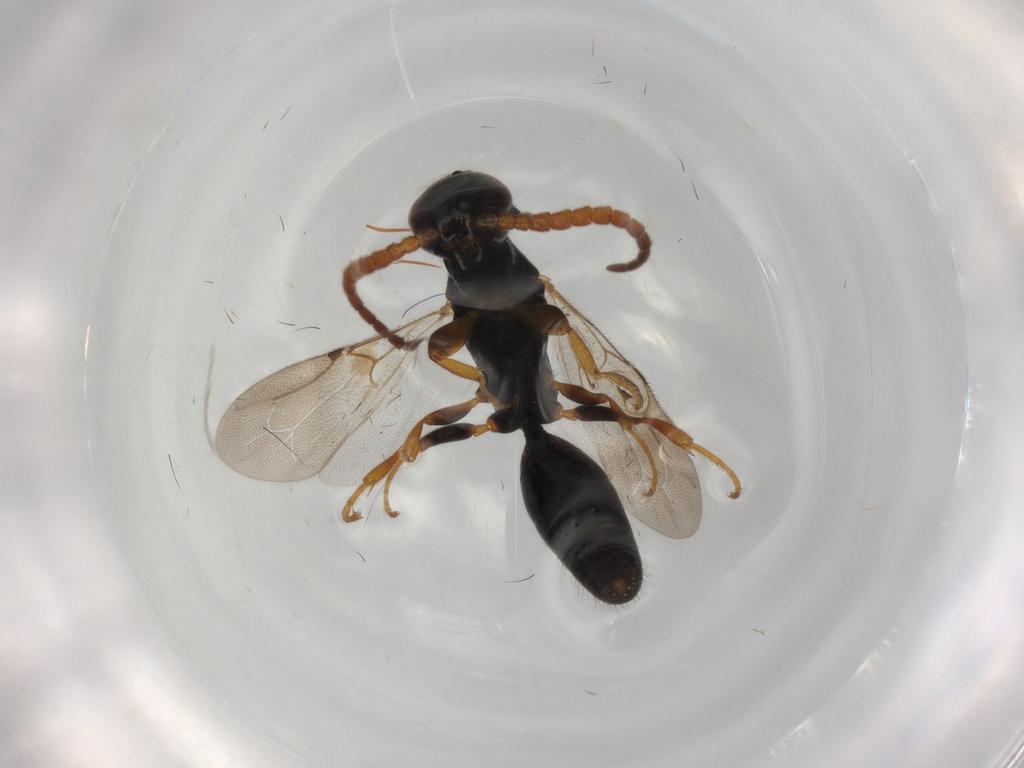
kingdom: Animalia
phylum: Arthropoda
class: Insecta
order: Hymenoptera
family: Bethylidae
